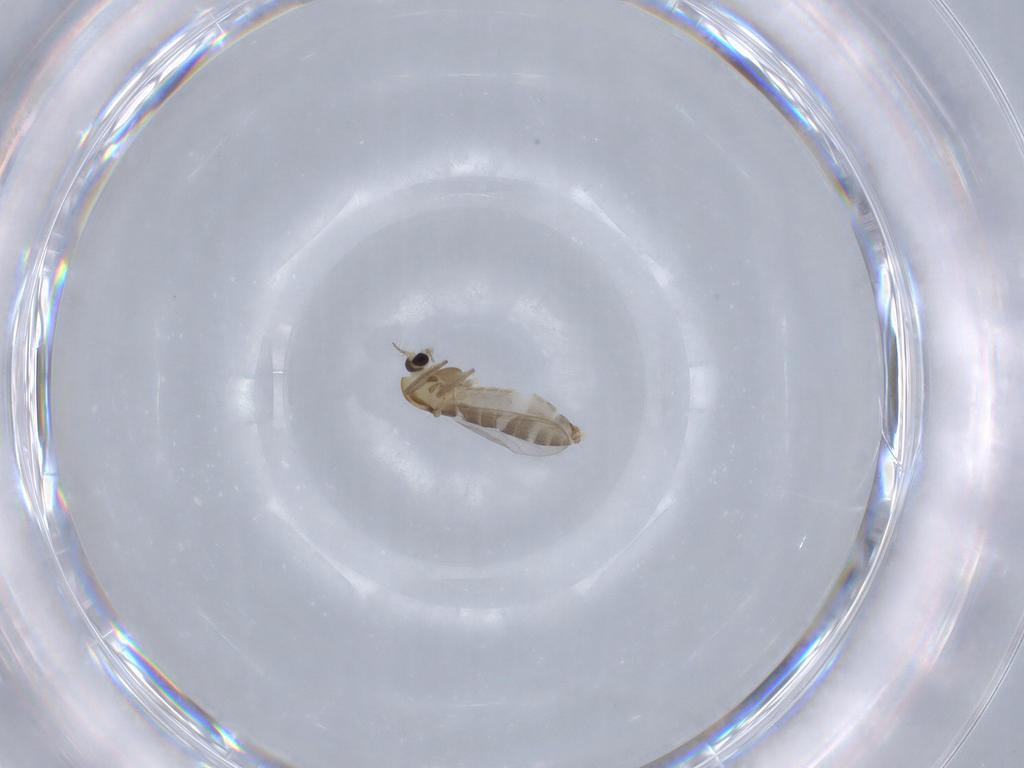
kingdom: Animalia
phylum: Arthropoda
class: Insecta
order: Diptera
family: Chironomidae
